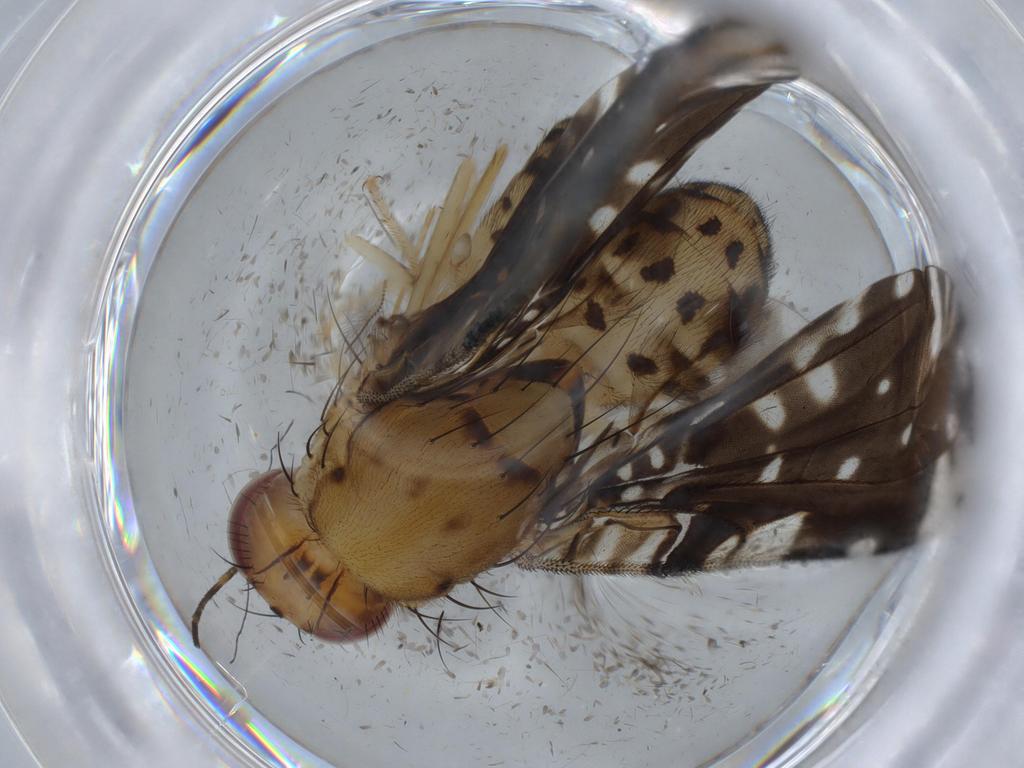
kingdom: Animalia
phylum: Arthropoda
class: Insecta
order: Diptera
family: Tephritidae
